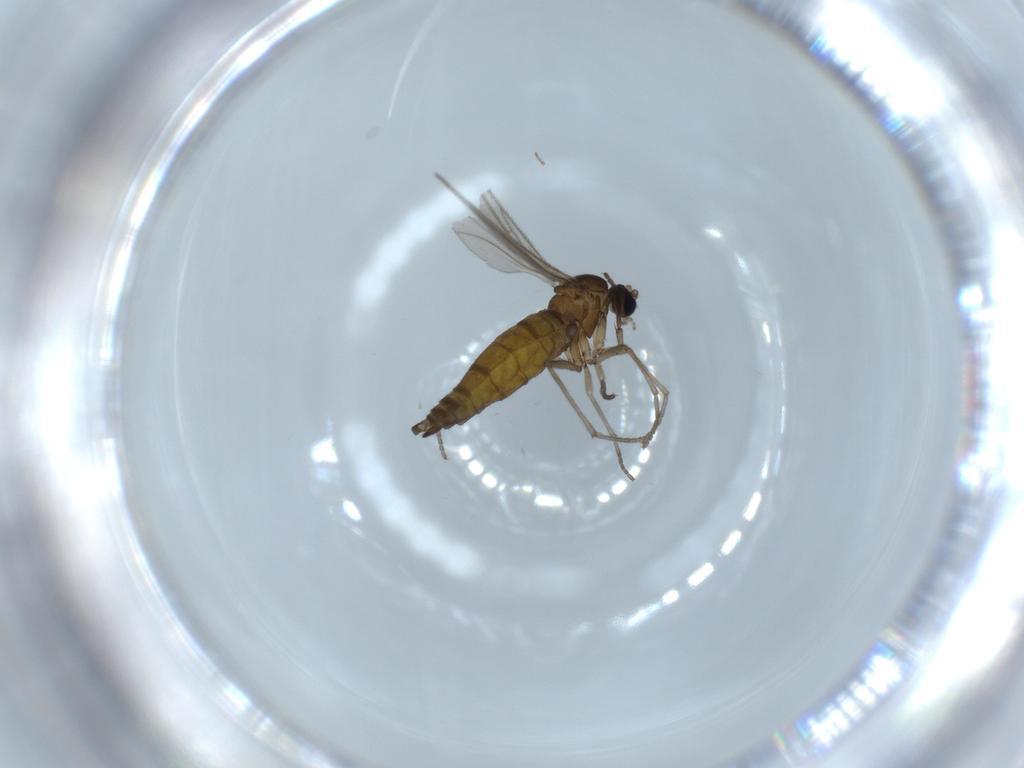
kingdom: Animalia
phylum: Arthropoda
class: Insecta
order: Diptera
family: Sciaridae
